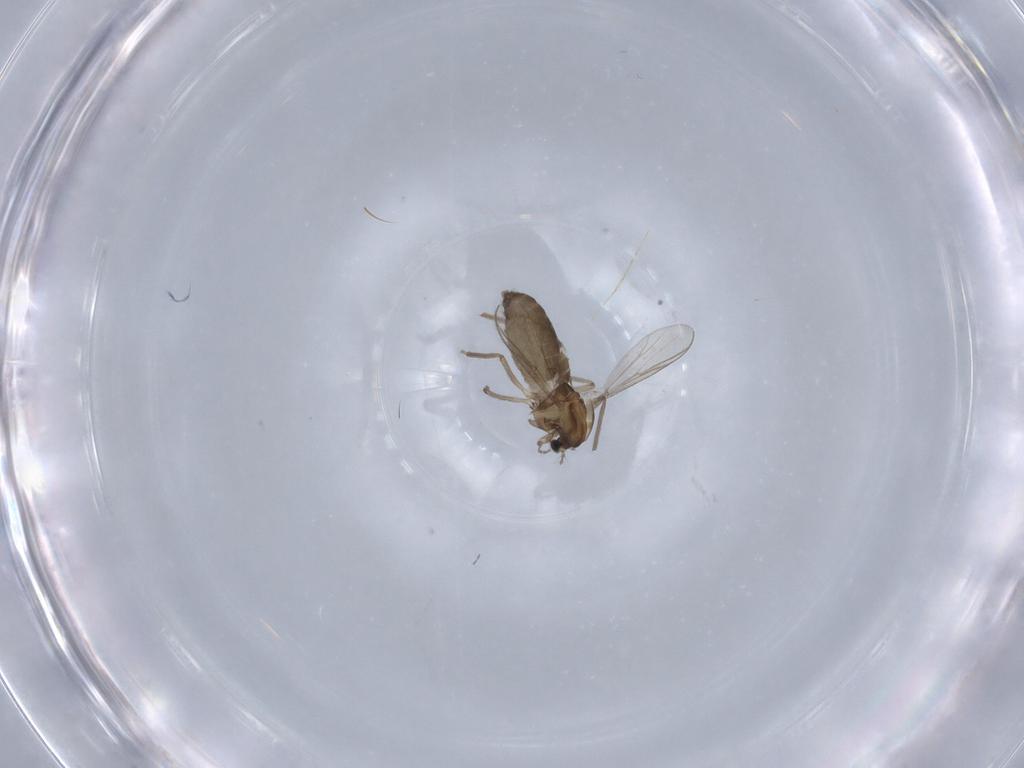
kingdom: Animalia
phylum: Arthropoda
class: Insecta
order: Diptera
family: Chironomidae
